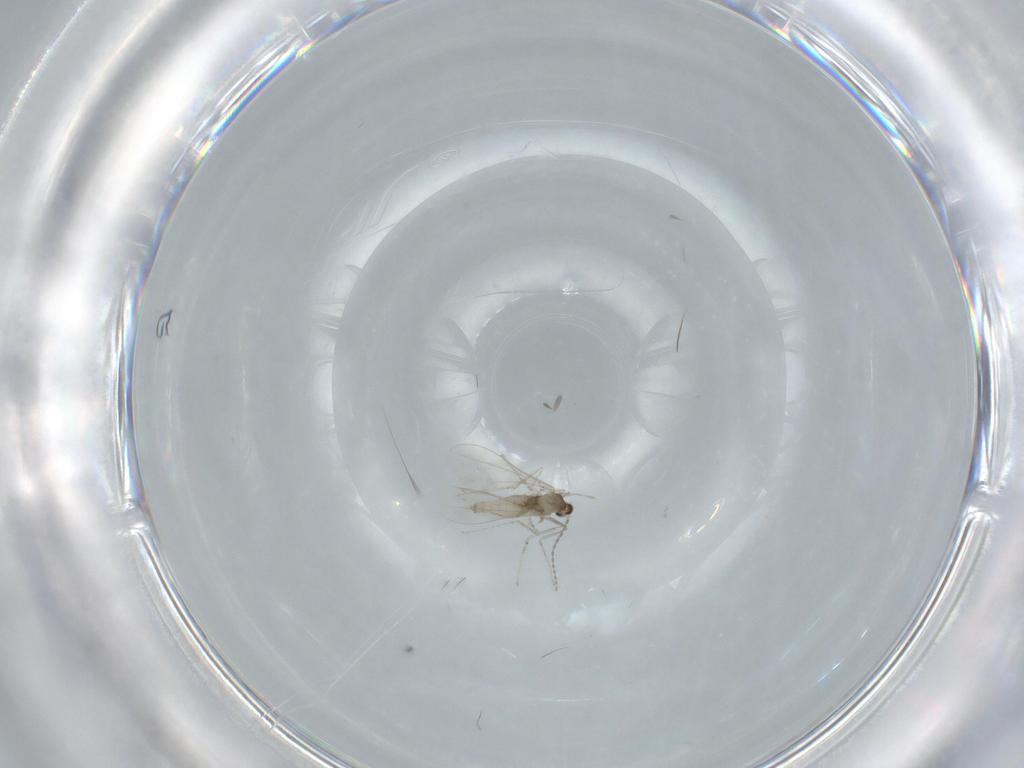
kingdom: Animalia
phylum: Arthropoda
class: Insecta
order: Diptera
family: Cecidomyiidae
